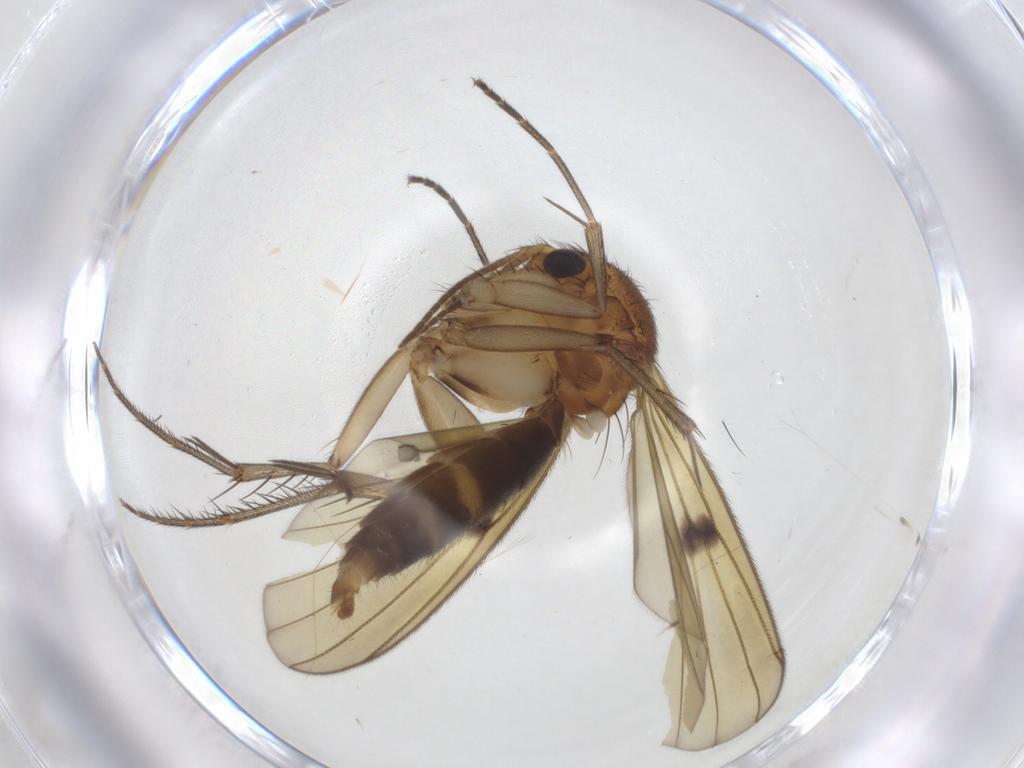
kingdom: Animalia
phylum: Arthropoda
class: Insecta
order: Diptera
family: Mycetophilidae
